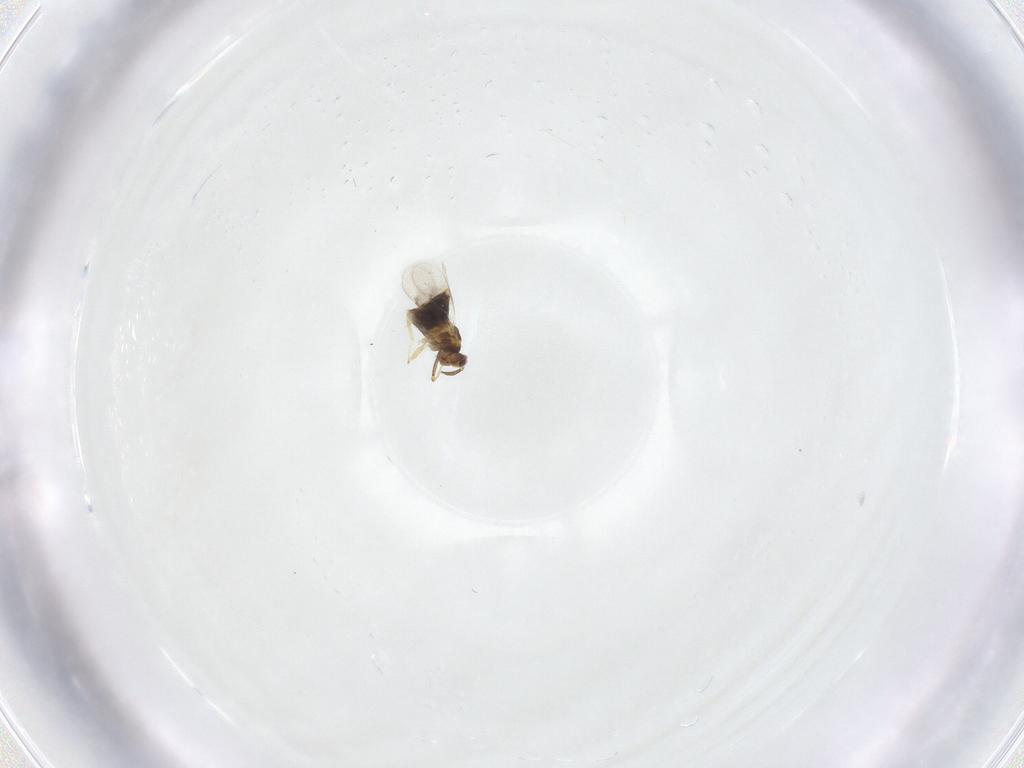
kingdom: Animalia
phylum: Arthropoda
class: Insecta
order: Hymenoptera
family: Aphelinidae
